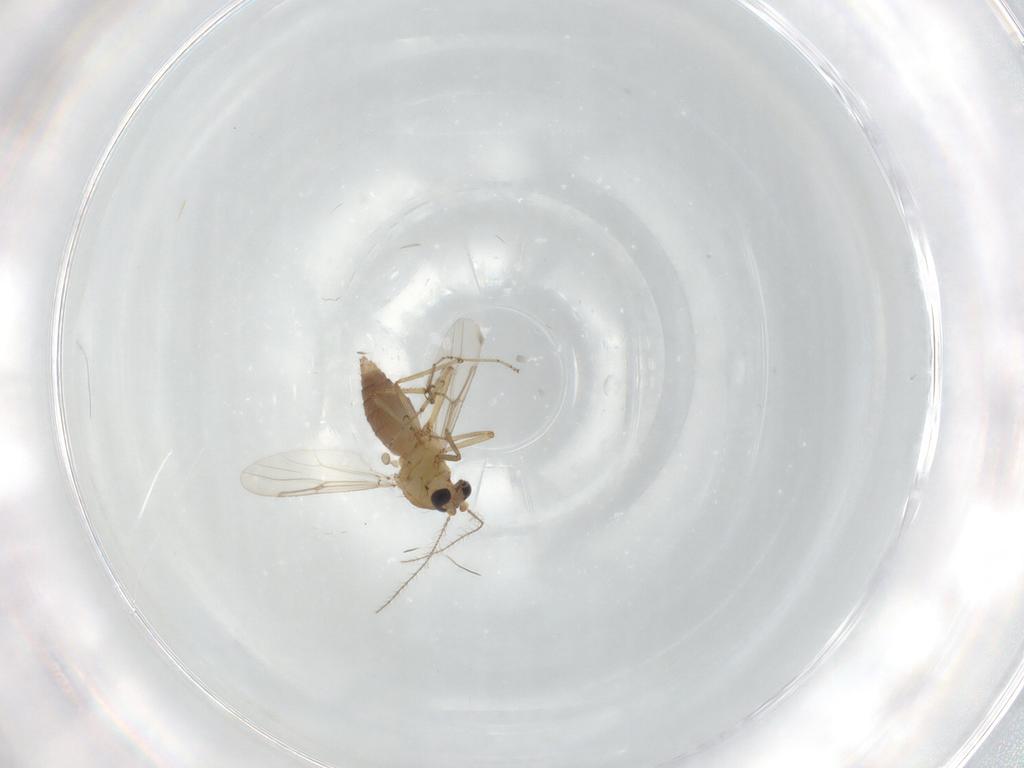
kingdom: Animalia
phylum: Arthropoda
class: Insecta
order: Diptera
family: Ceratopogonidae
